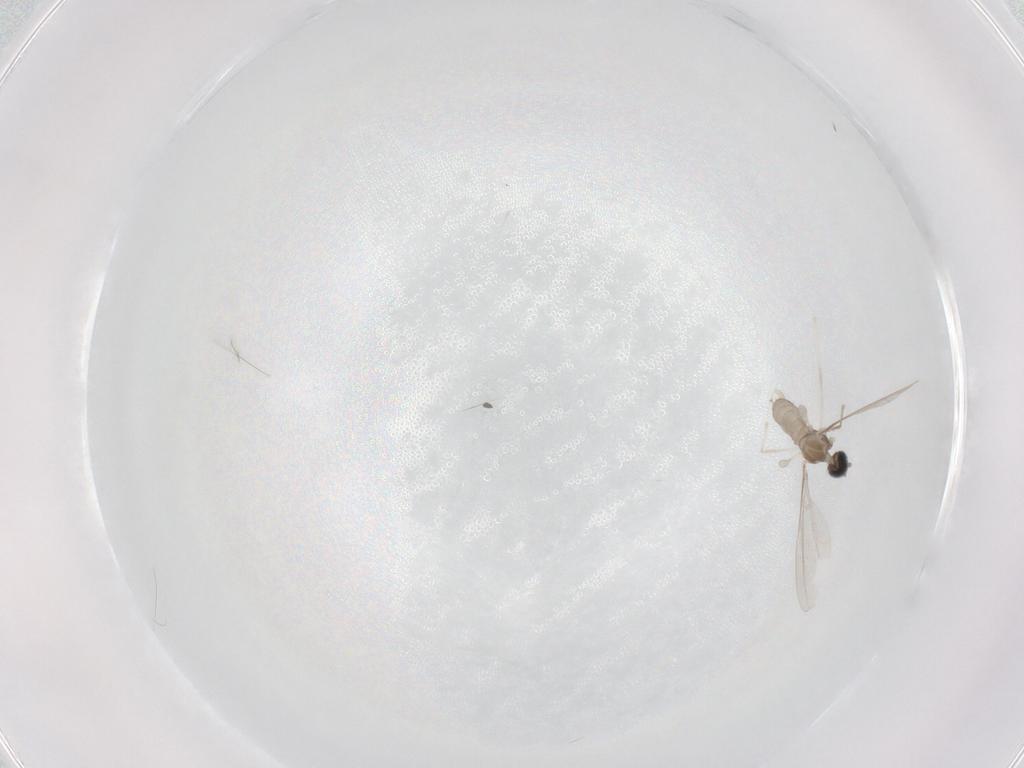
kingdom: Animalia
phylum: Arthropoda
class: Insecta
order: Diptera
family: Cecidomyiidae
